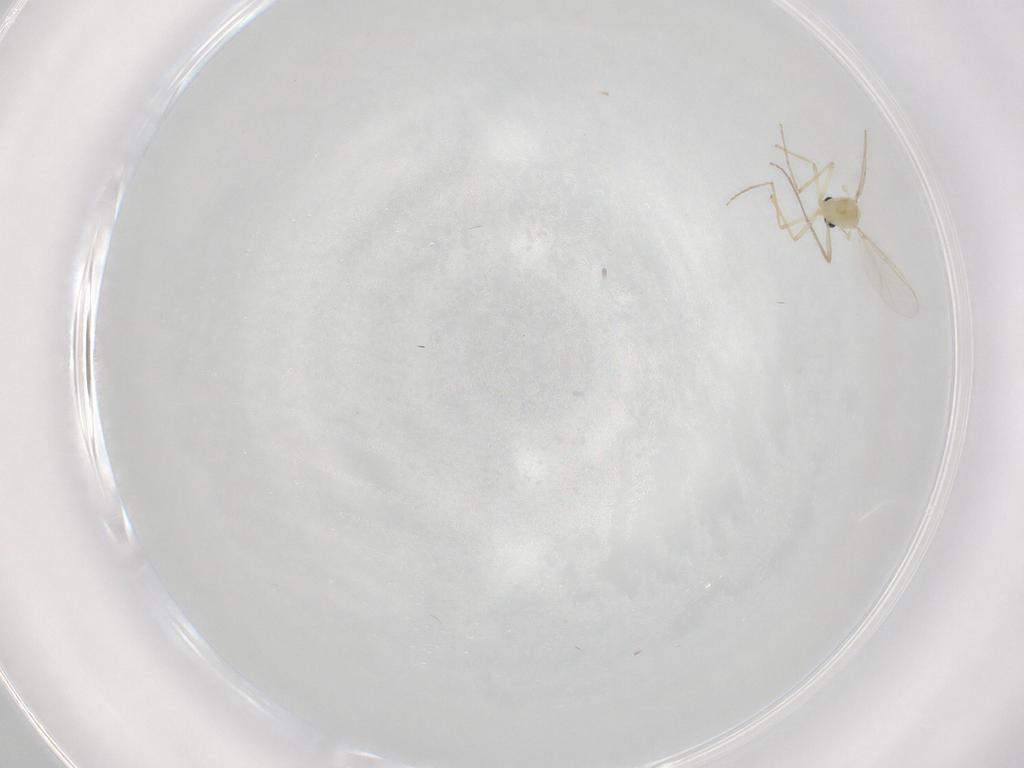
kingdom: Animalia
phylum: Arthropoda
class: Insecta
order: Diptera
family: Chironomidae
